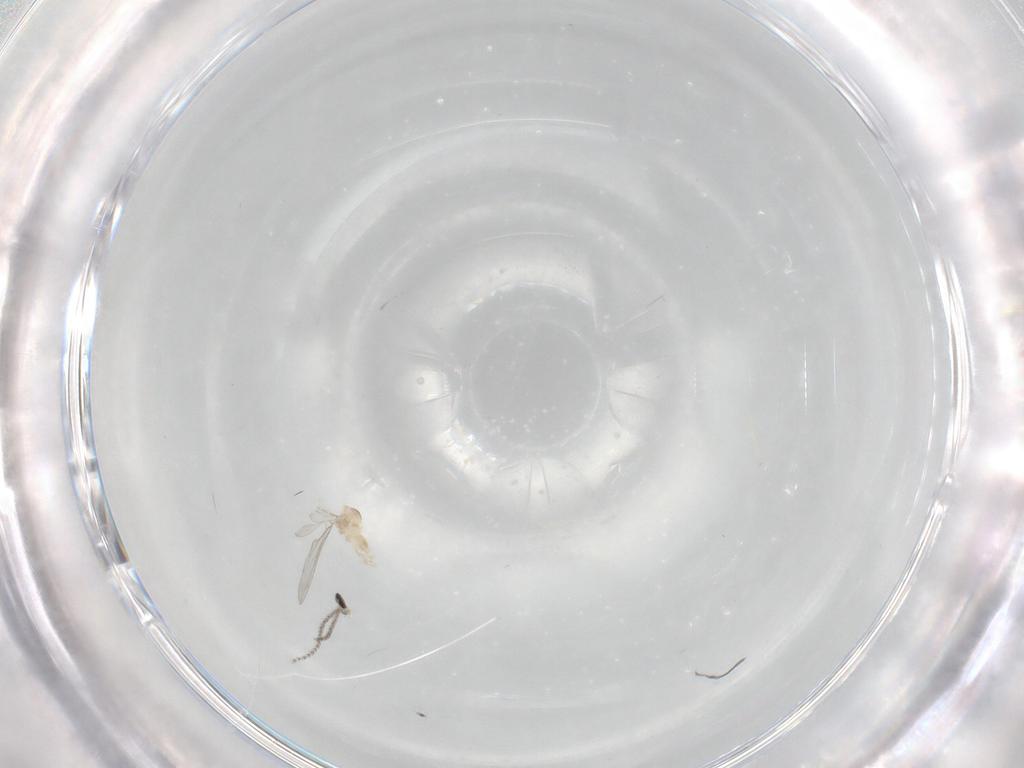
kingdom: Animalia
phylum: Arthropoda
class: Insecta
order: Diptera
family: Cecidomyiidae
